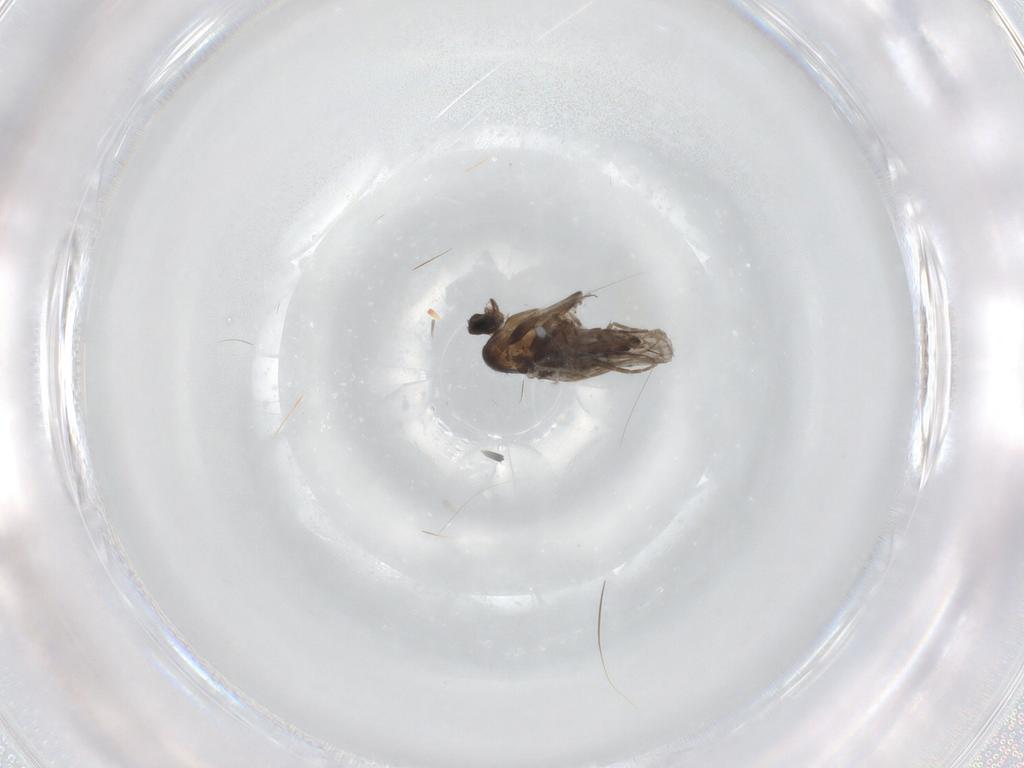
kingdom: Animalia
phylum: Arthropoda
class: Insecta
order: Diptera
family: Cecidomyiidae
